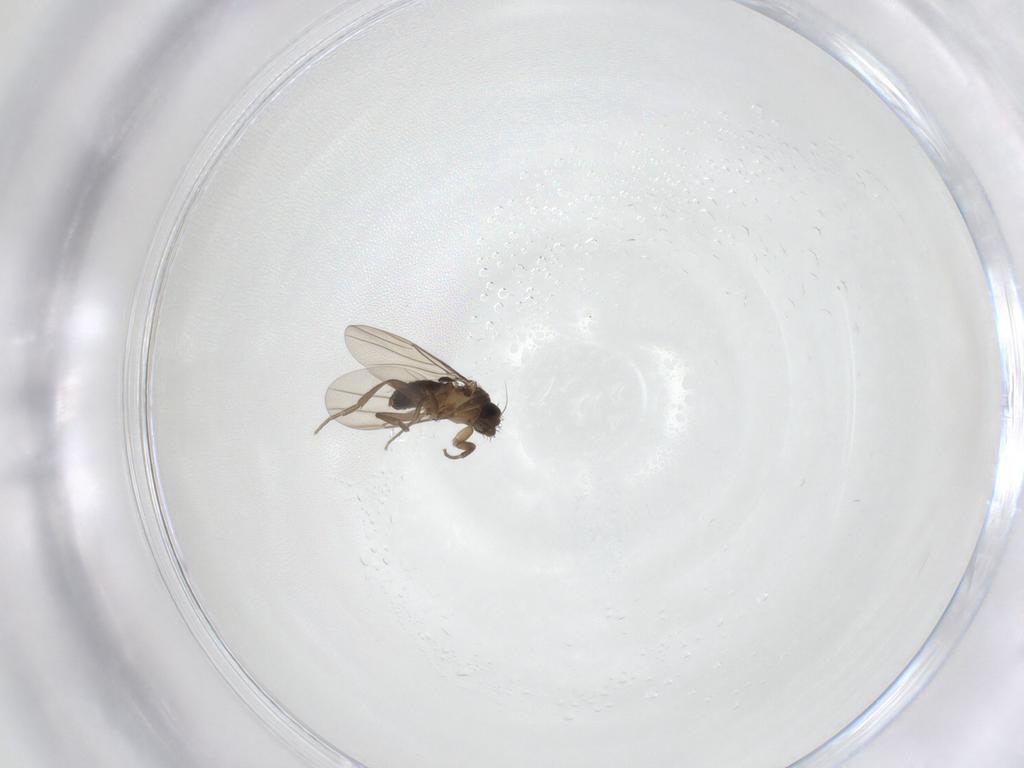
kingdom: Animalia
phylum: Arthropoda
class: Insecta
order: Diptera
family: Phoridae
